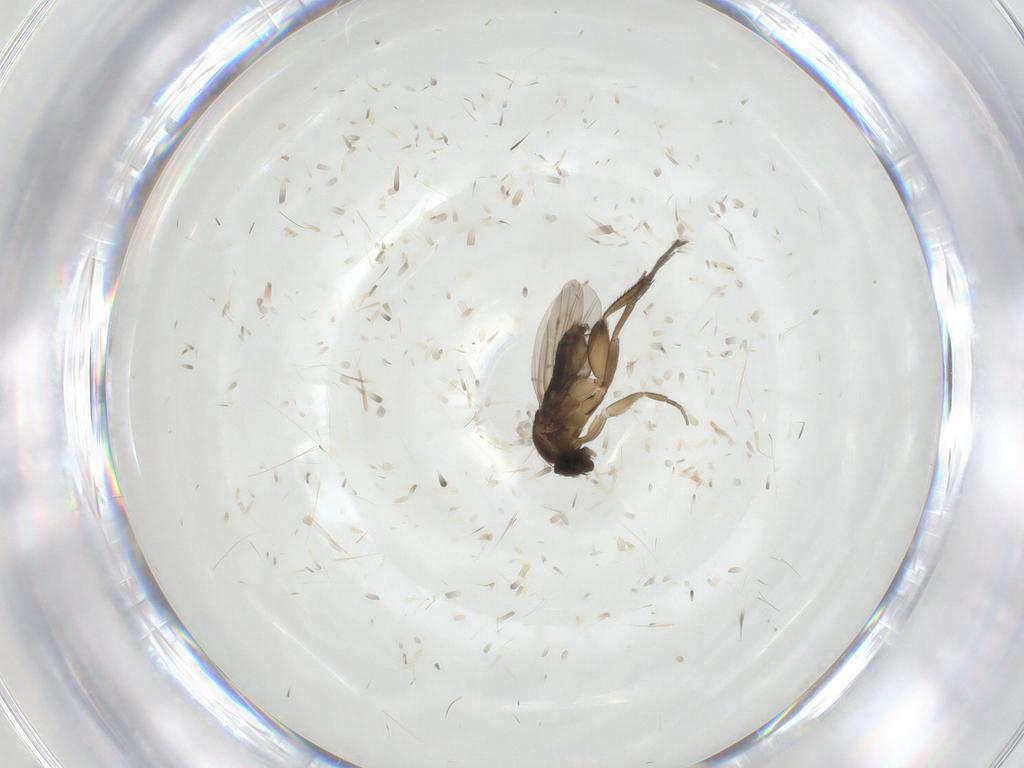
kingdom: Animalia
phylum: Arthropoda
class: Insecta
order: Diptera
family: Phoridae
